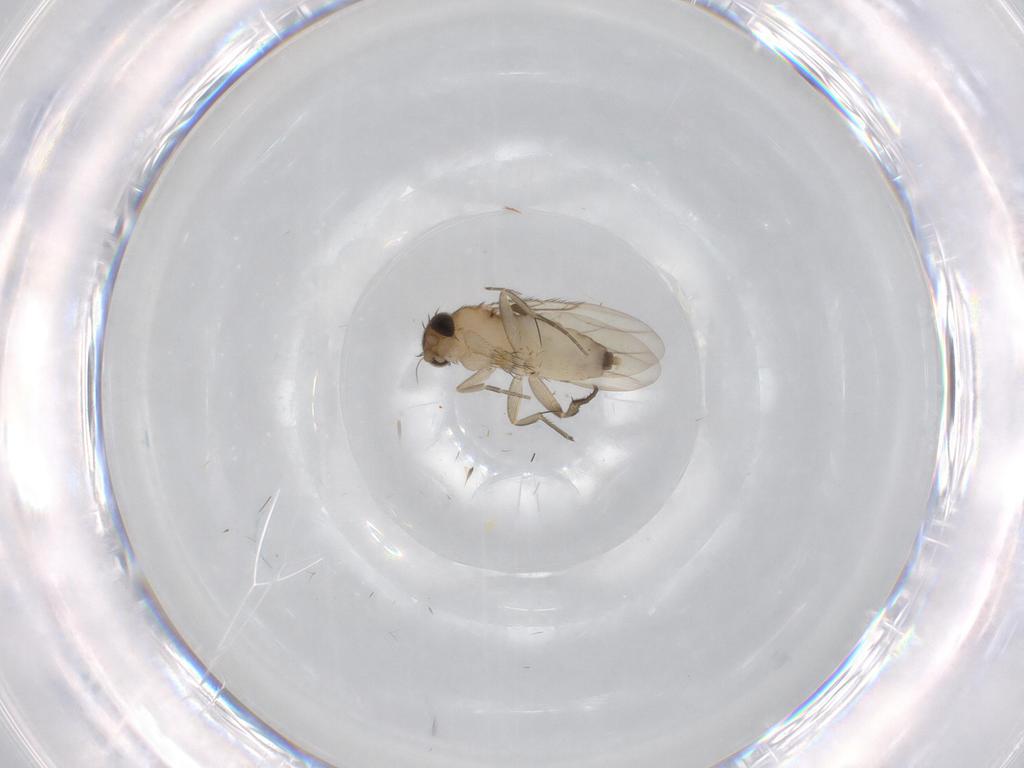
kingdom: Animalia
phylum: Arthropoda
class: Insecta
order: Diptera
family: Phoridae
